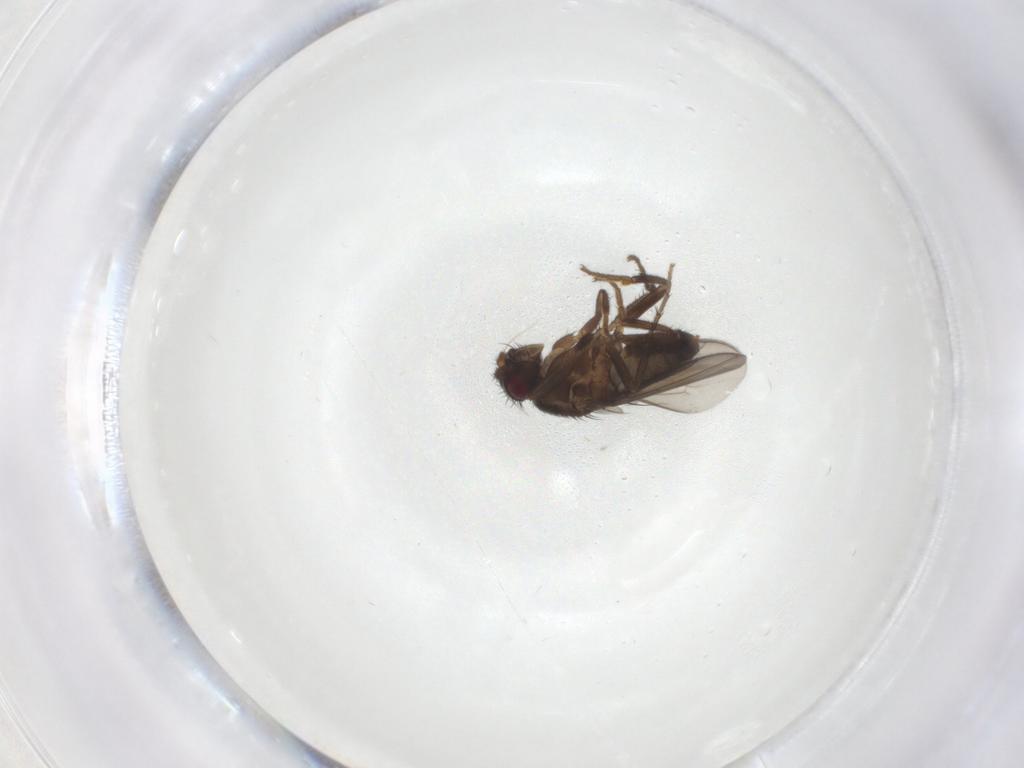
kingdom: Animalia
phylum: Arthropoda
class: Insecta
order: Diptera
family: Sphaeroceridae
